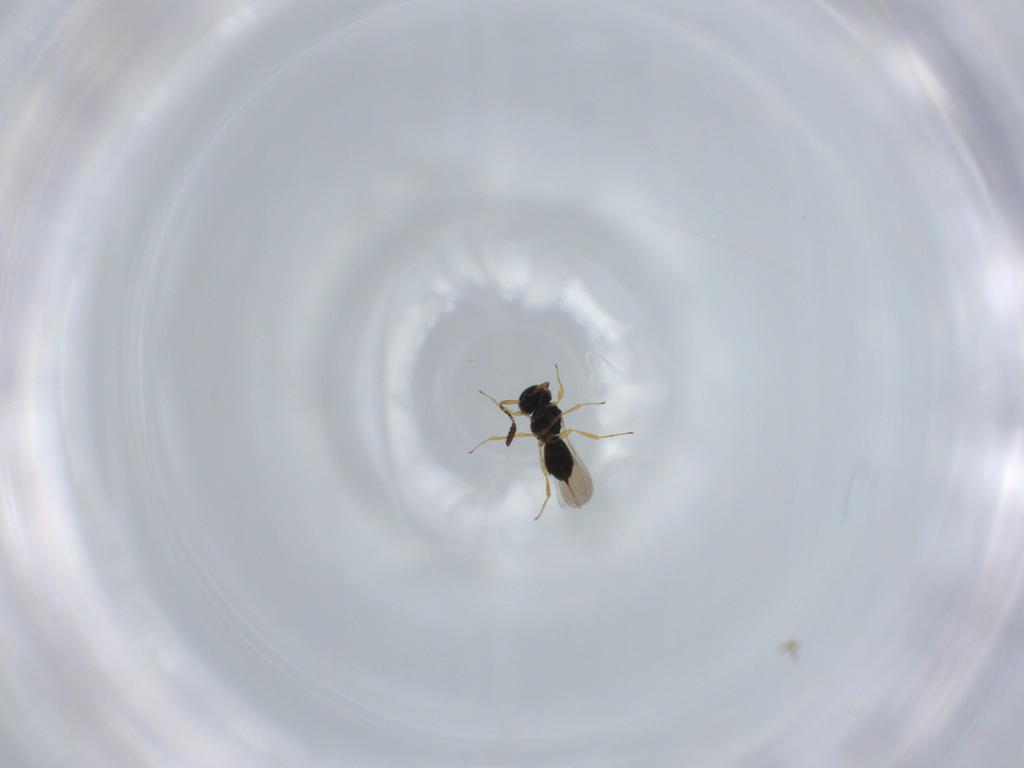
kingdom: Animalia
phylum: Arthropoda
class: Insecta
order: Hymenoptera
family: Scelionidae
